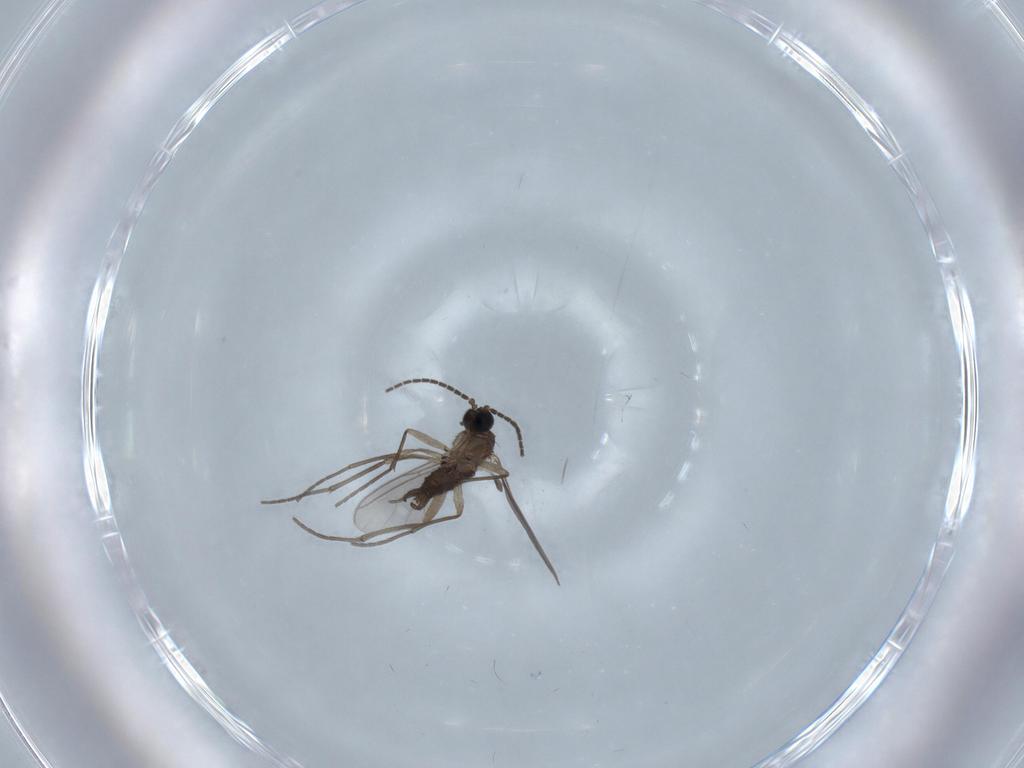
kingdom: Animalia
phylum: Arthropoda
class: Insecta
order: Diptera
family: Sciaridae
